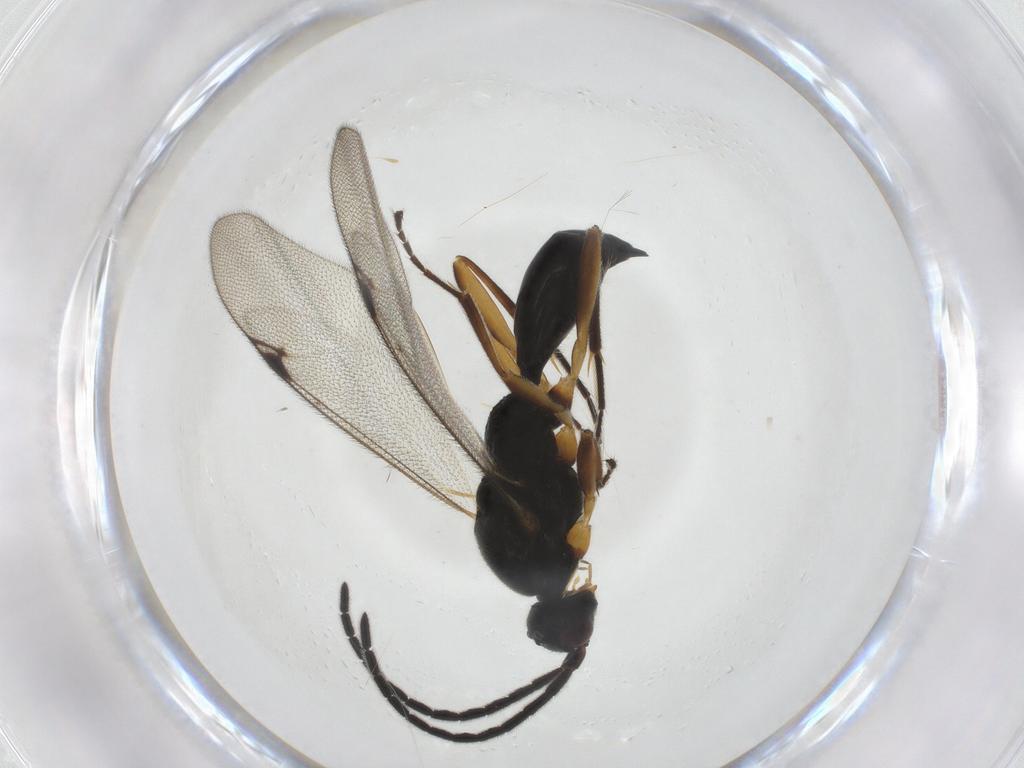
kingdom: Animalia
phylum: Arthropoda
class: Insecta
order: Hymenoptera
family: Proctotrupidae
